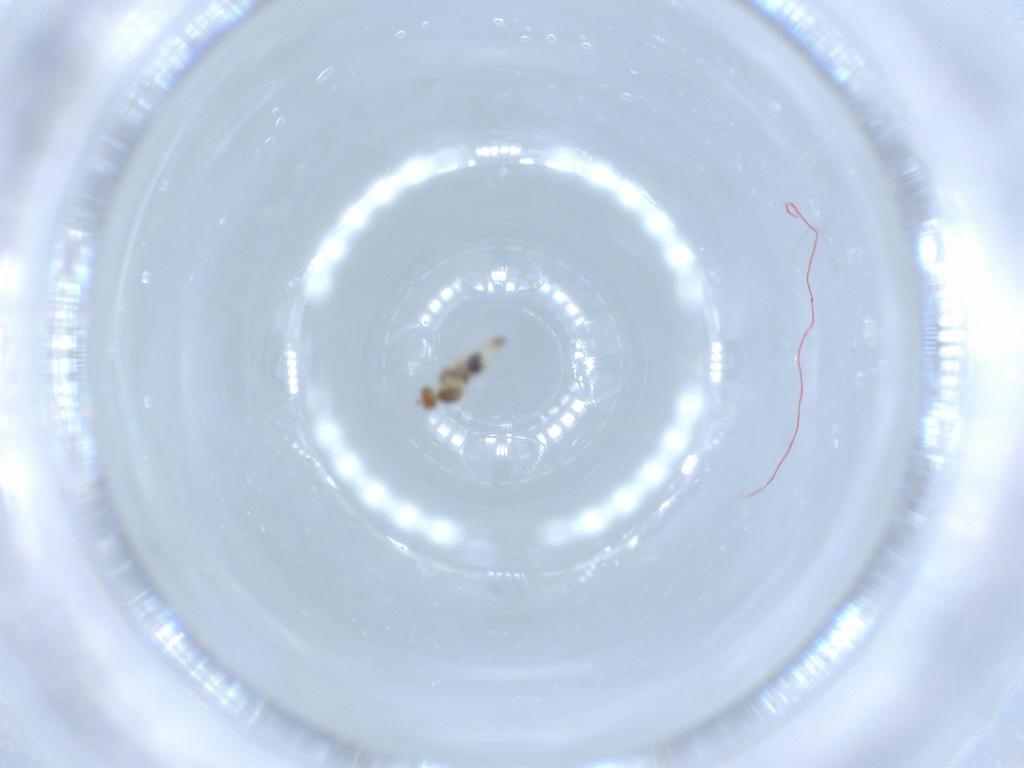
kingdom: Animalia
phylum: Arthropoda
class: Insecta
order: Diptera
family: Cecidomyiidae
